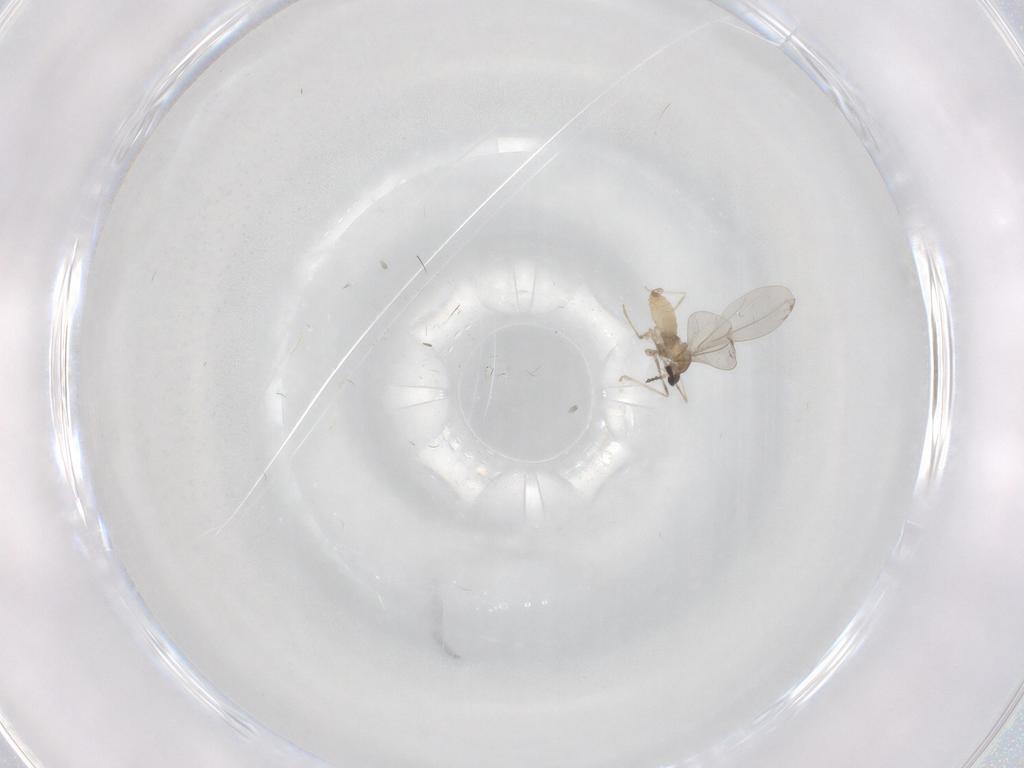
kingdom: Animalia
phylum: Arthropoda
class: Insecta
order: Diptera
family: Cecidomyiidae
